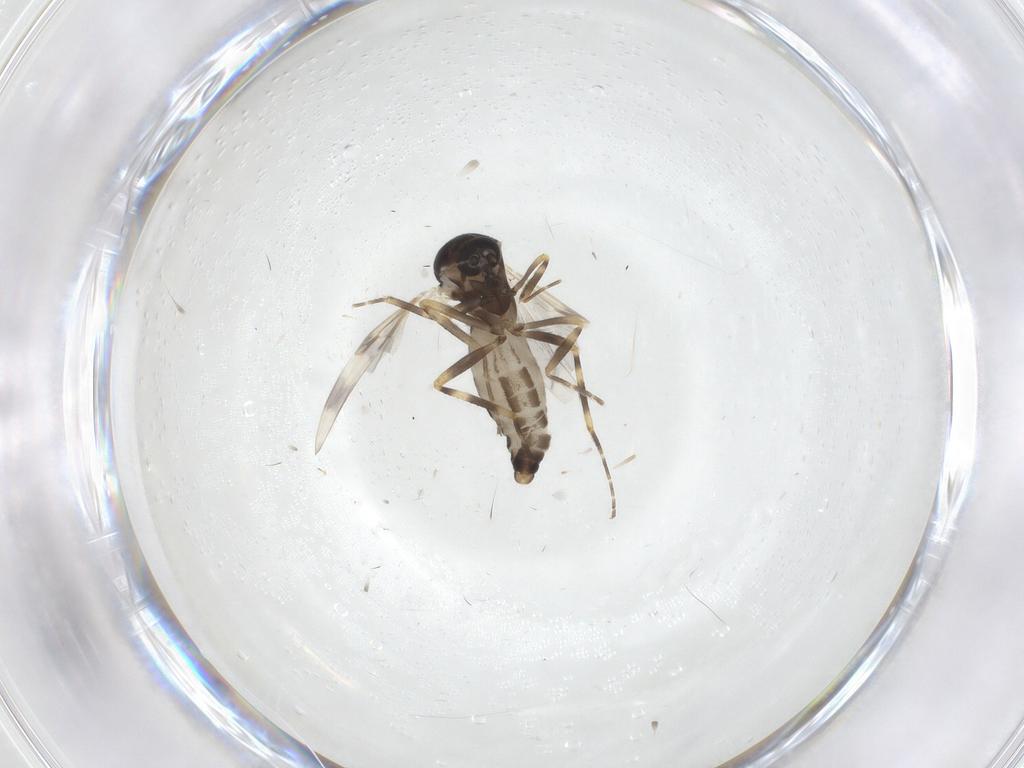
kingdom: Animalia
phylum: Arthropoda
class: Insecta
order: Diptera
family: Ceratopogonidae
